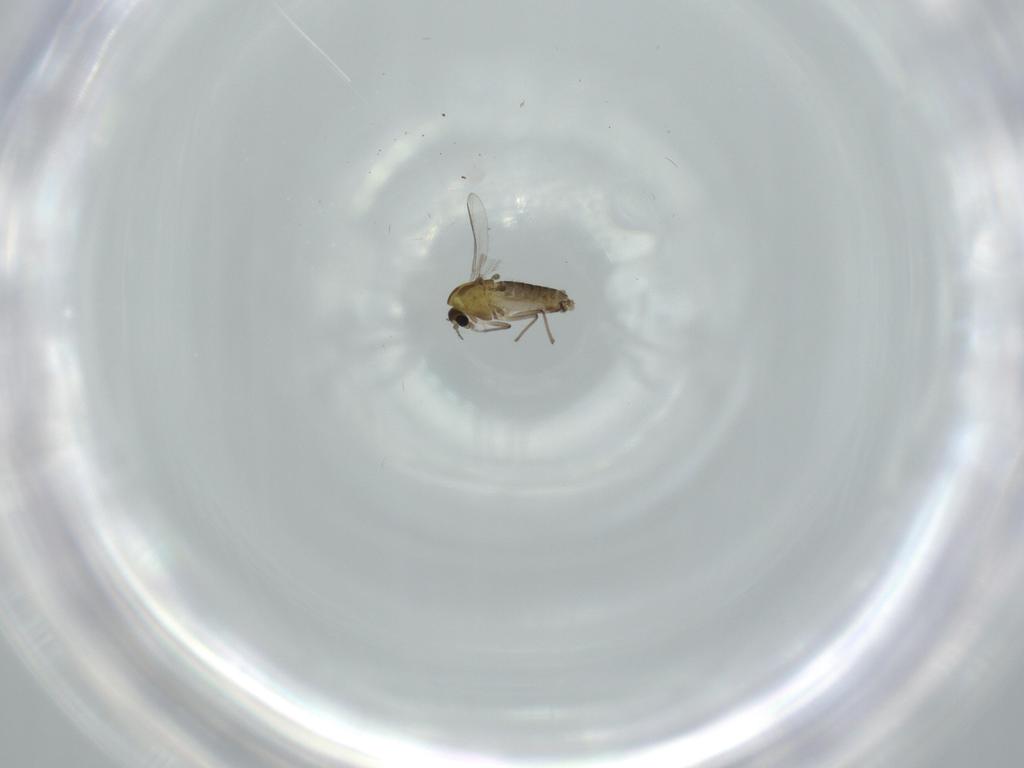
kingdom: Animalia
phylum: Arthropoda
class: Insecta
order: Diptera
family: Chironomidae
